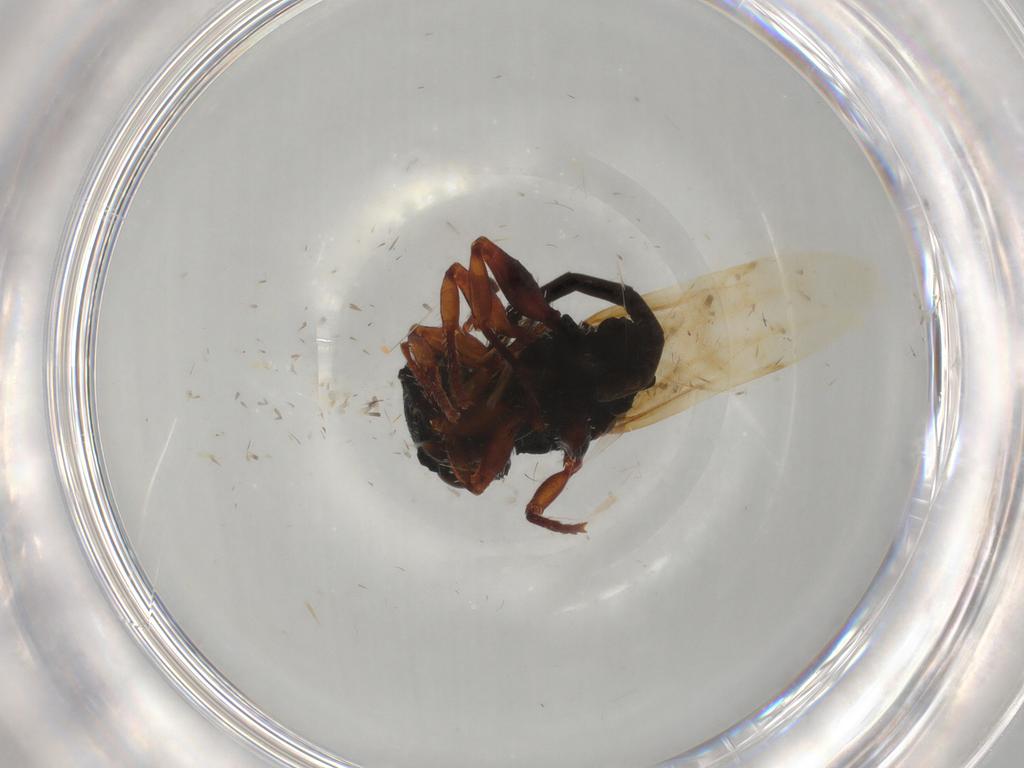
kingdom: Animalia
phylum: Arthropoda
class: Insecta
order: Hymenoptera
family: Formicidae
